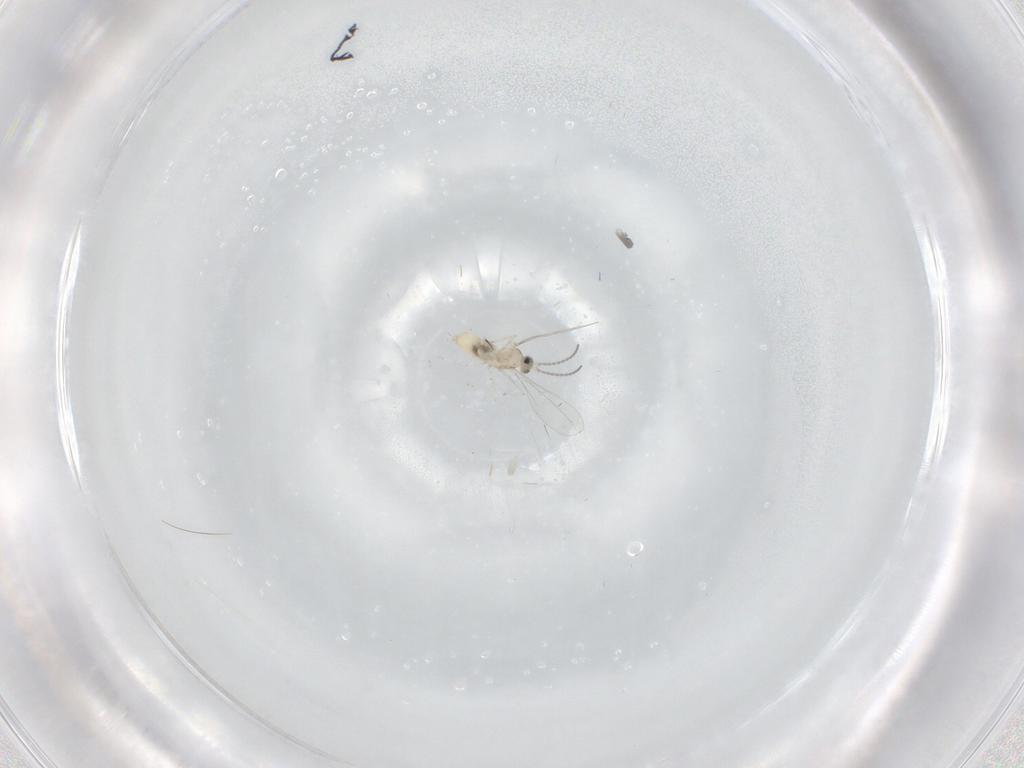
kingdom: Animalia
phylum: Arthropoda
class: Insecta
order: Diptera
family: Cecidomyiidae
